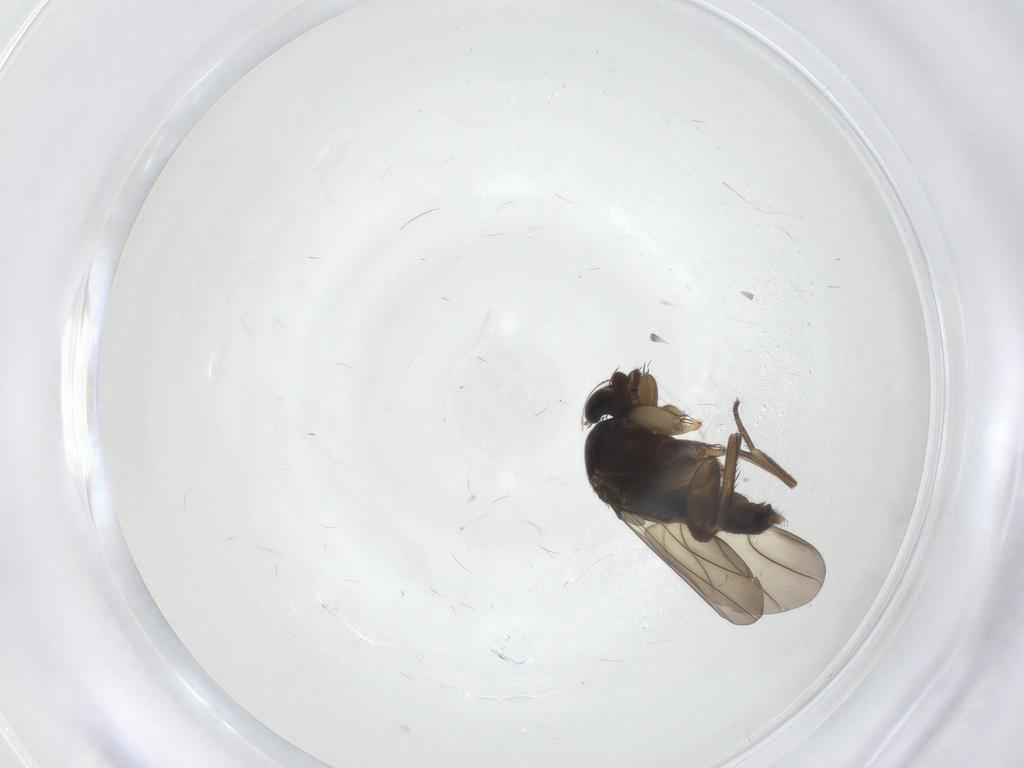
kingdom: Animalia
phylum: Arthropoda
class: Insecta
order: Diptera
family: Phoridae
